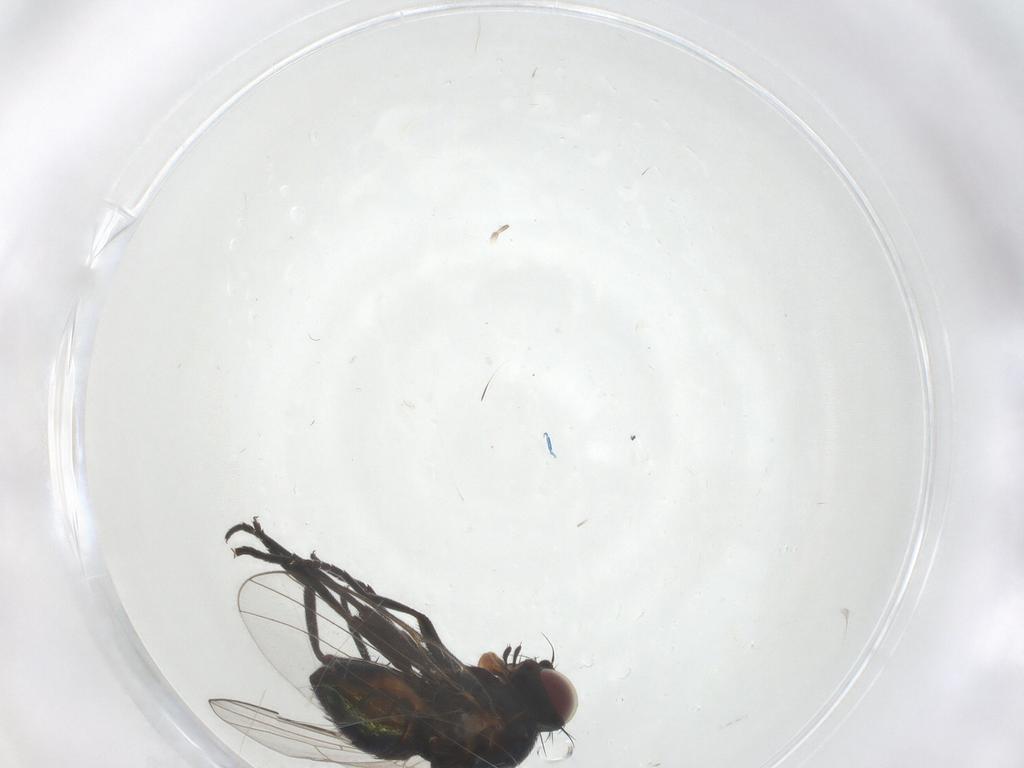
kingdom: Animalia
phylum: Arthropoda
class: Insecta
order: Diptera
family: Agromyzidae
